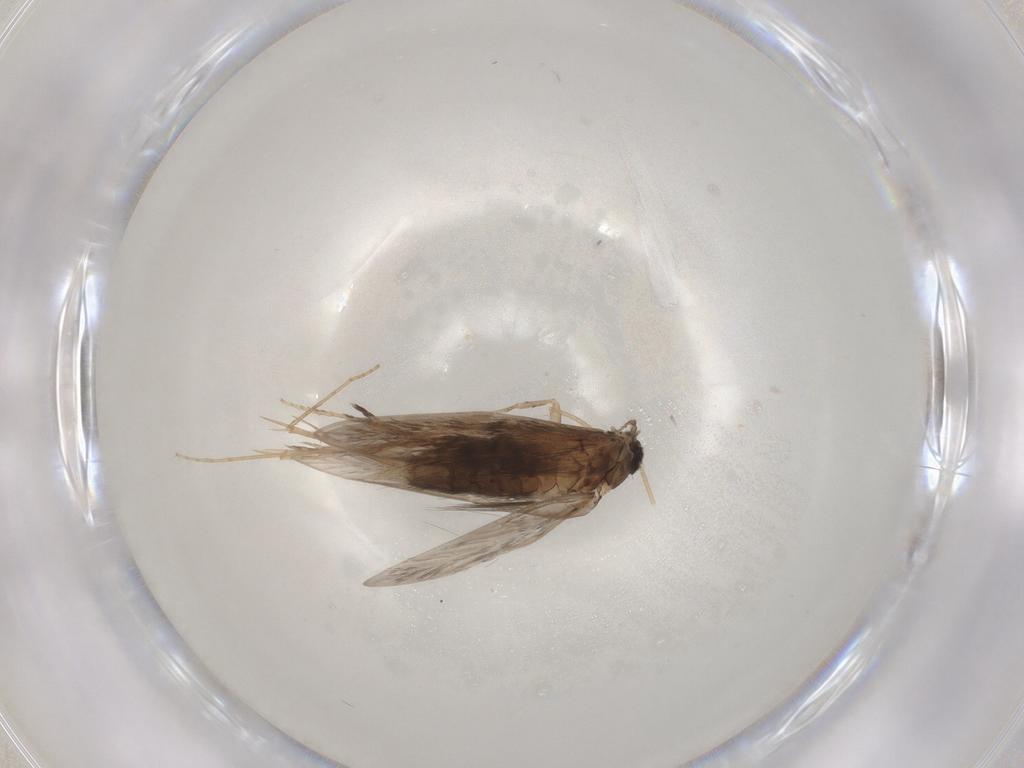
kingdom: Animalia
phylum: Arthropoda
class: Insecta
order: Trichoptera
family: Hydroptilidae
